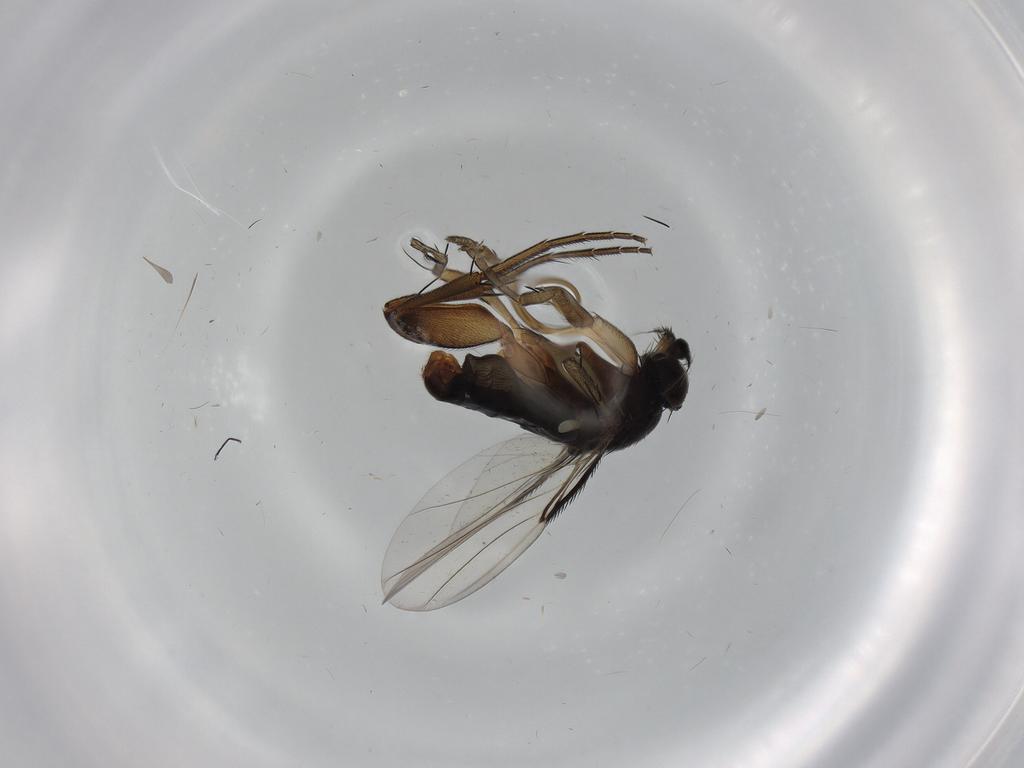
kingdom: Animalia
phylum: Arthropoda
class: Insecta
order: Diptera
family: Phoridae
